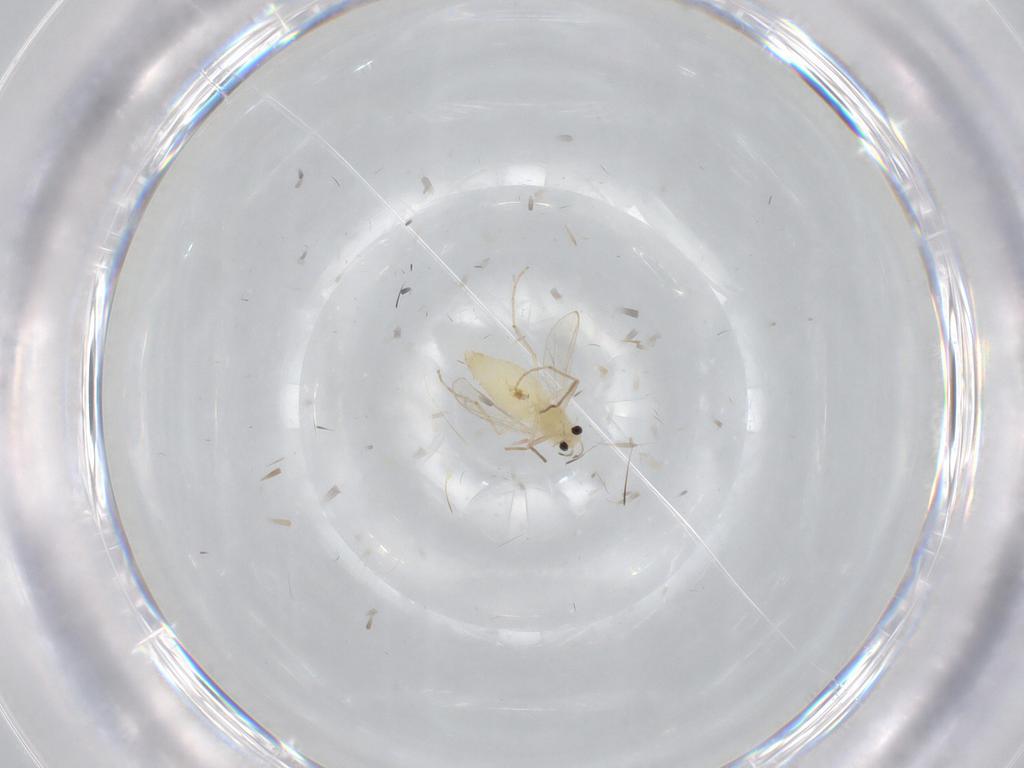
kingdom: Animalia
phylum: Arthropoda
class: Insecta
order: Diptera
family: Chironomidae
